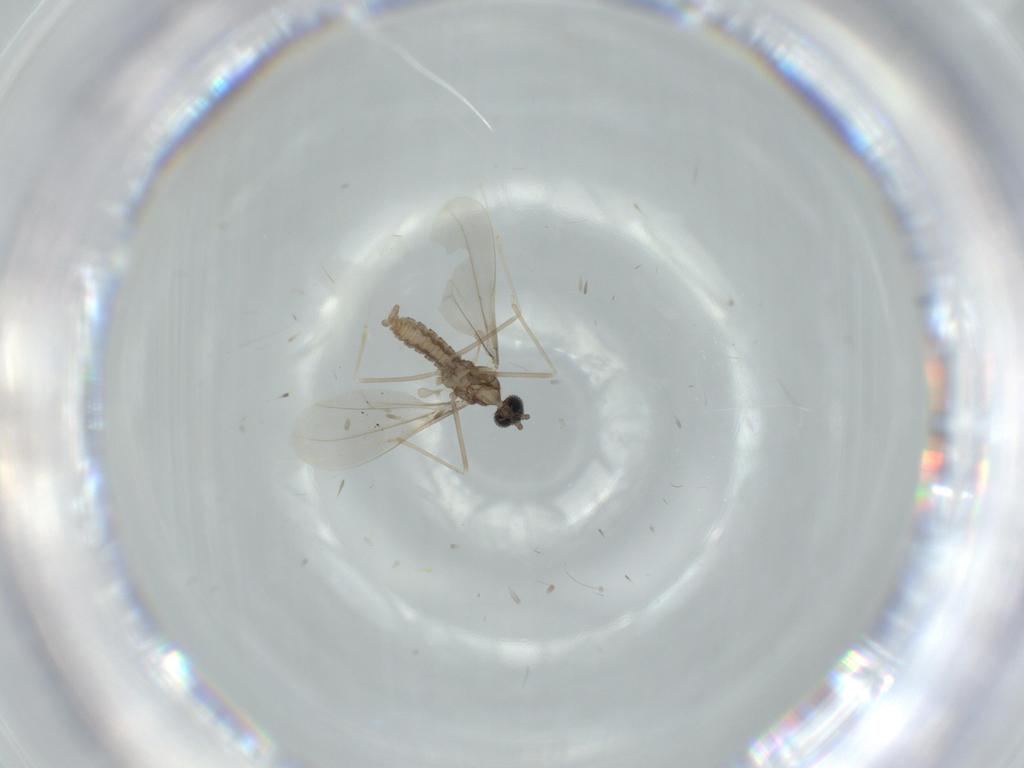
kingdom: Animalia
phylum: Arthropoda
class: Insecta
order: Diptera
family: Cecidomyiidae
